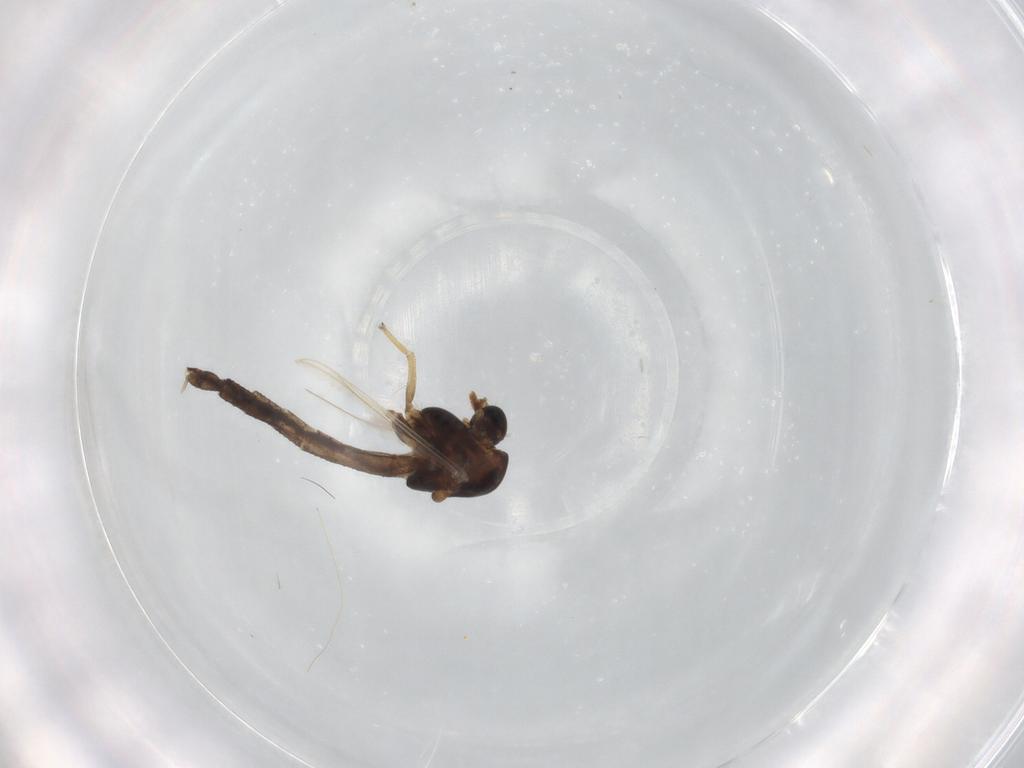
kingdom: Animalia
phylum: Arthropoda
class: Insecta
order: Diptera
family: Chironomidae
